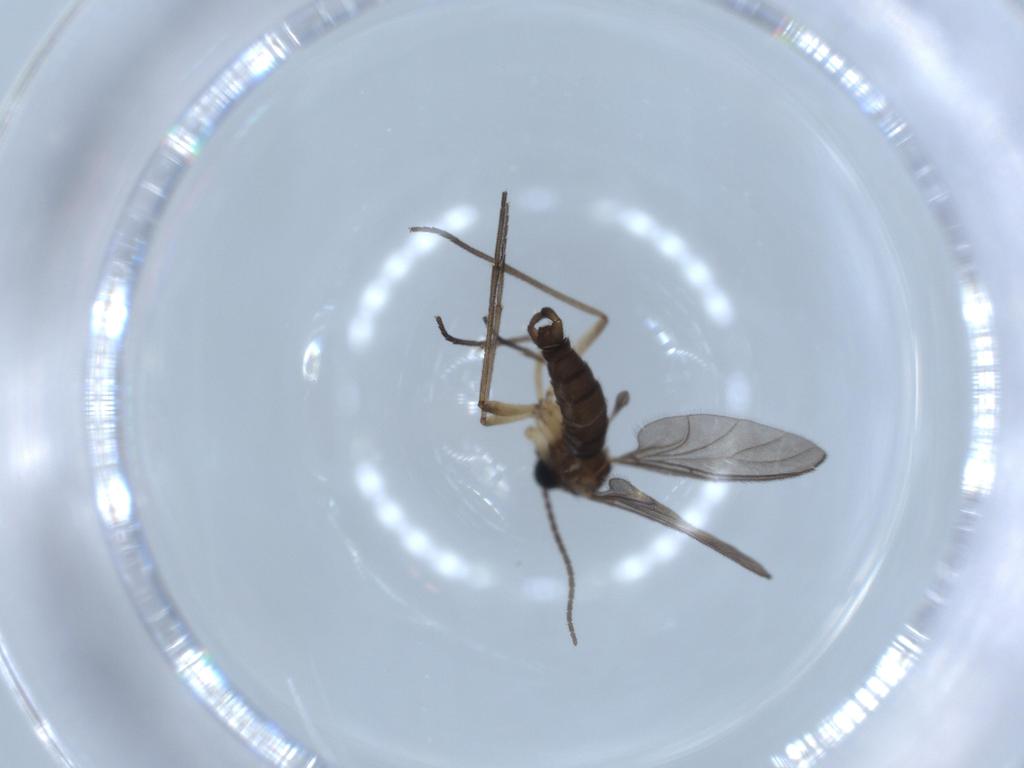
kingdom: Animalia
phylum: Arthropoda
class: Insecta
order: Diptera
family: Sciaridae
